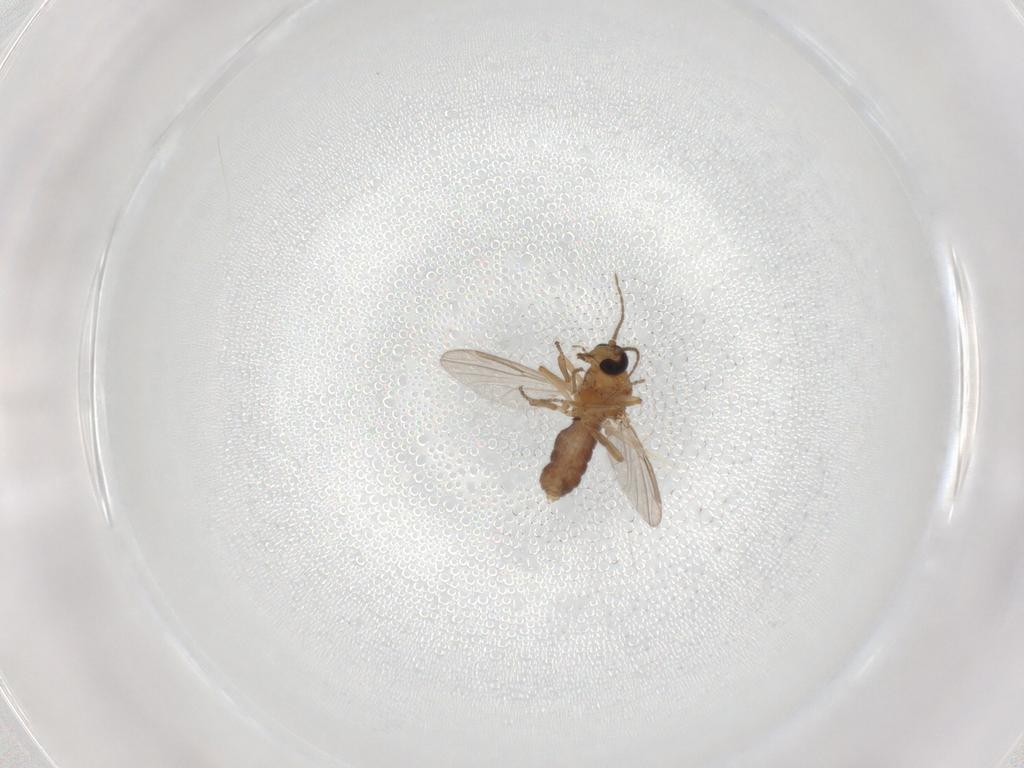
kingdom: Animalia
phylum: Arthropoda
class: Insecta
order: Diptera
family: Ceratopogonidae
